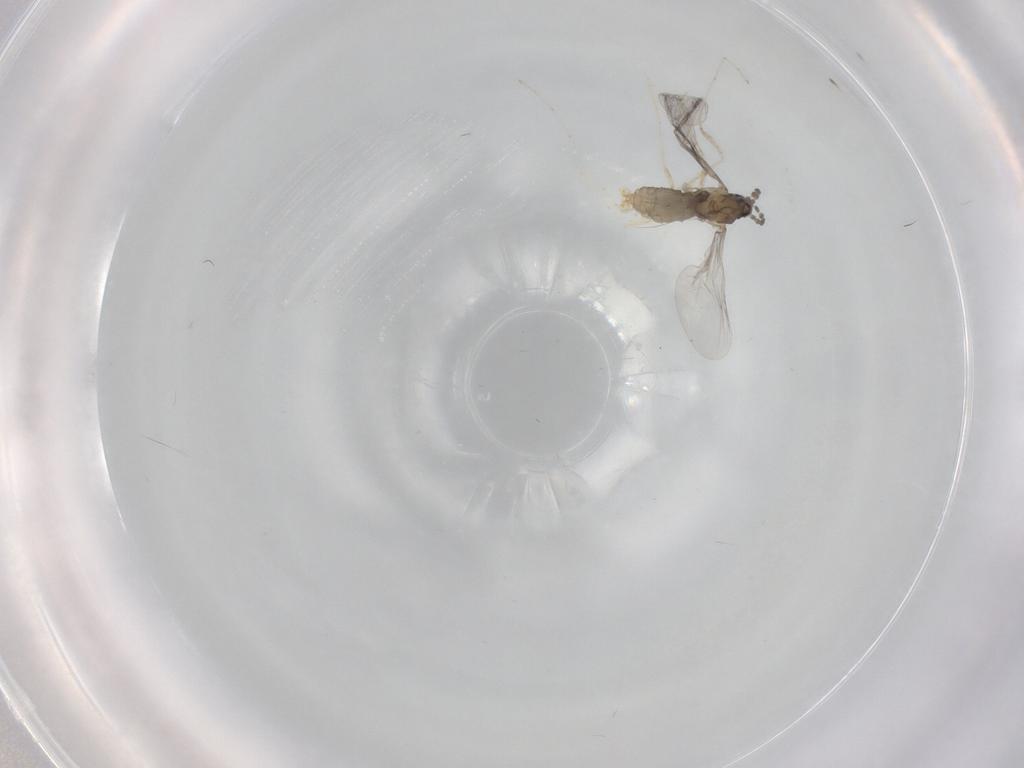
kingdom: Animalia
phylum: Arthropoda
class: Insecta
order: Diptera
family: Cecidomyiidae
